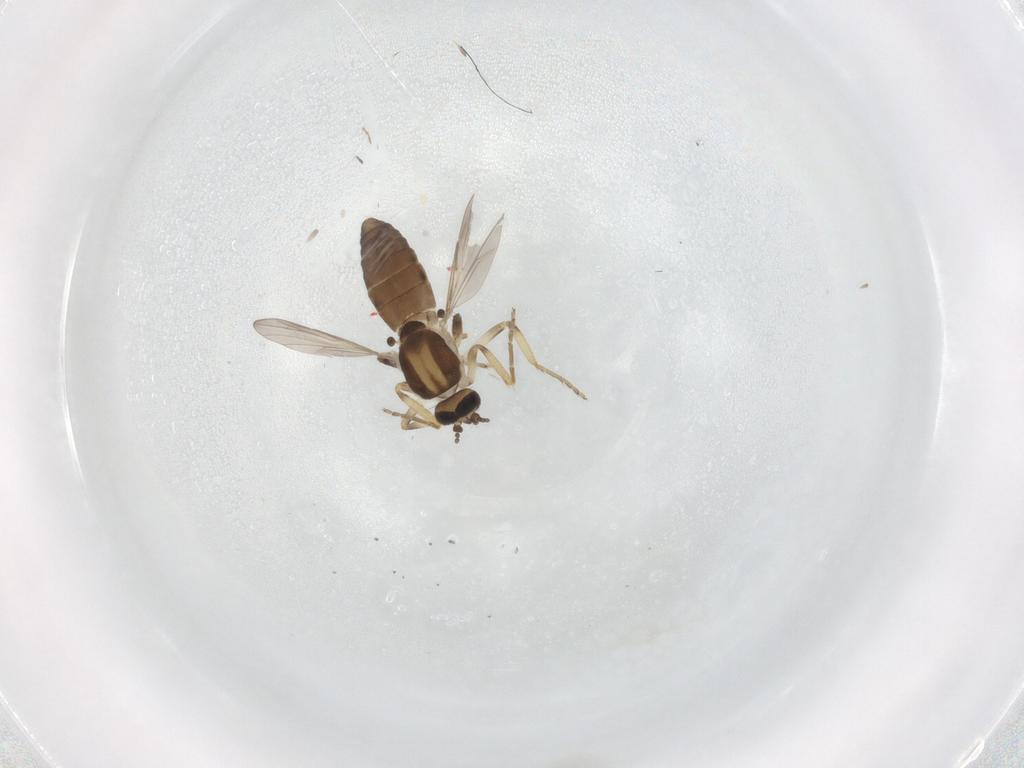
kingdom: Animalia
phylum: Arthropoda
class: Insecta
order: Diptera
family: Ceratopogonidae
